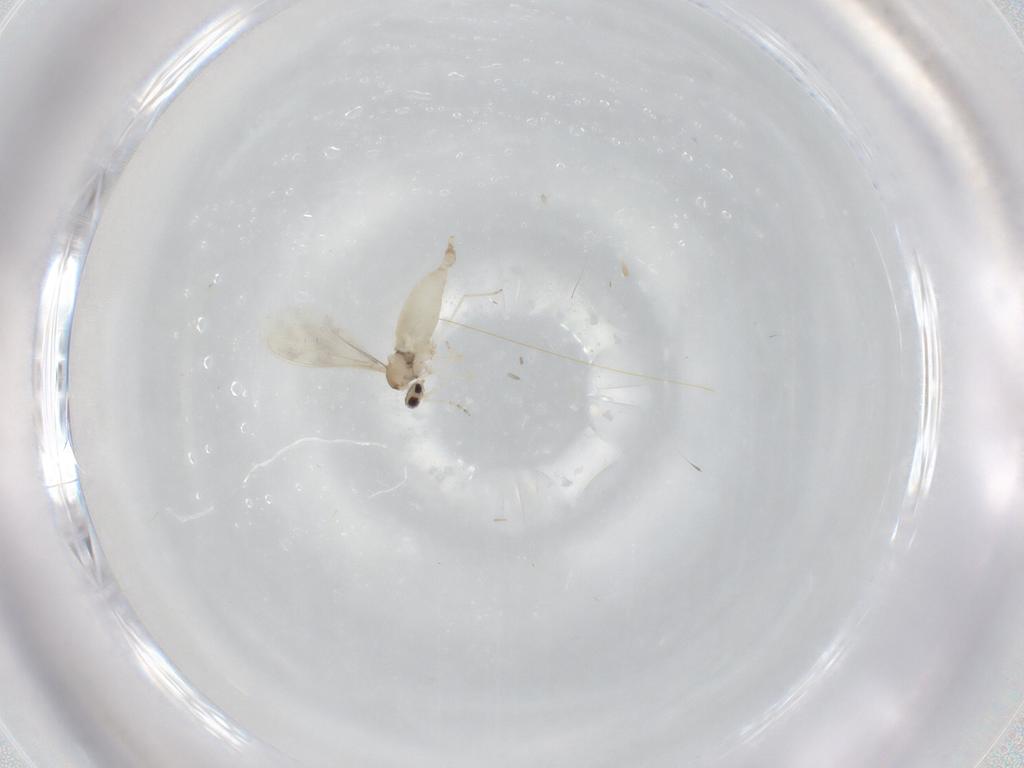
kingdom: Animalia
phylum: Arthropoda
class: Insecta
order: Diptera
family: Cecidomyiidae
